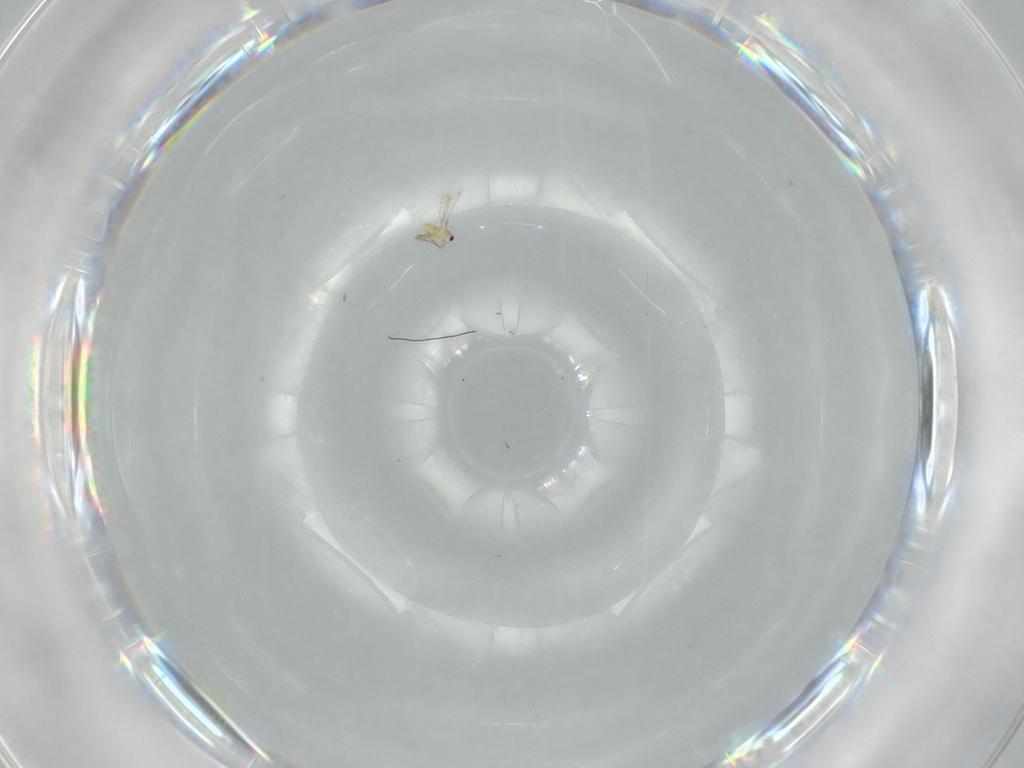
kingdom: Animalia
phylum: Arthropoda
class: Insecta
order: Hymenoptera
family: Mymaridae
